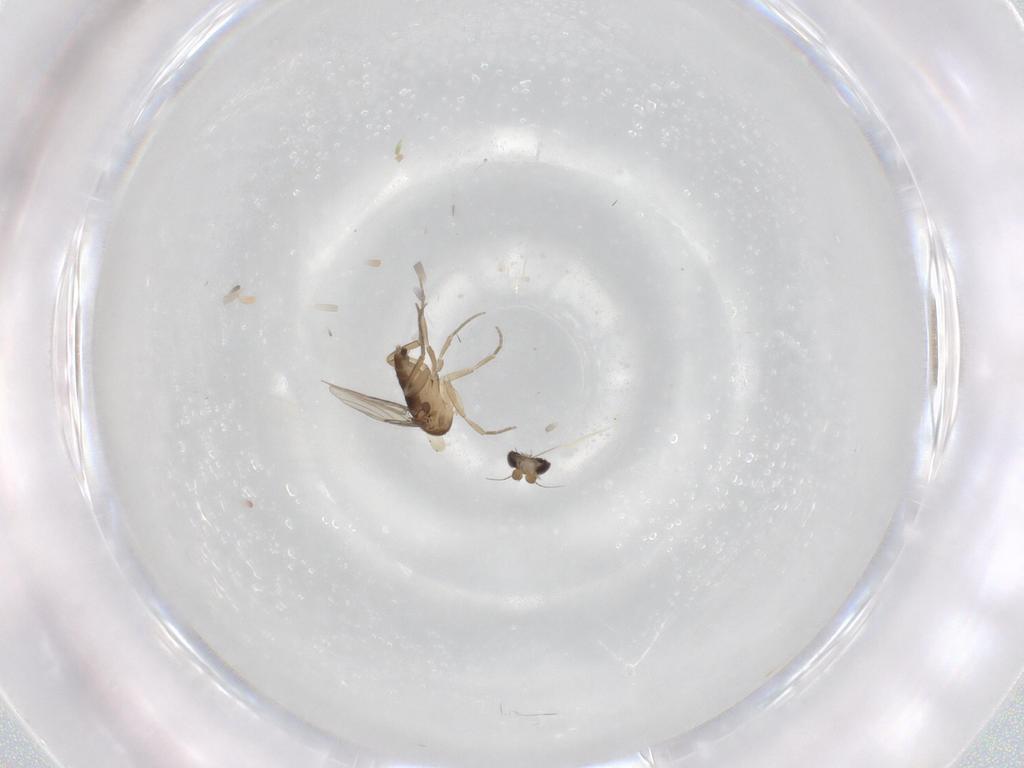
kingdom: Animalia
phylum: Arthropoda
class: Insecta
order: Diptera
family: Phoridae
